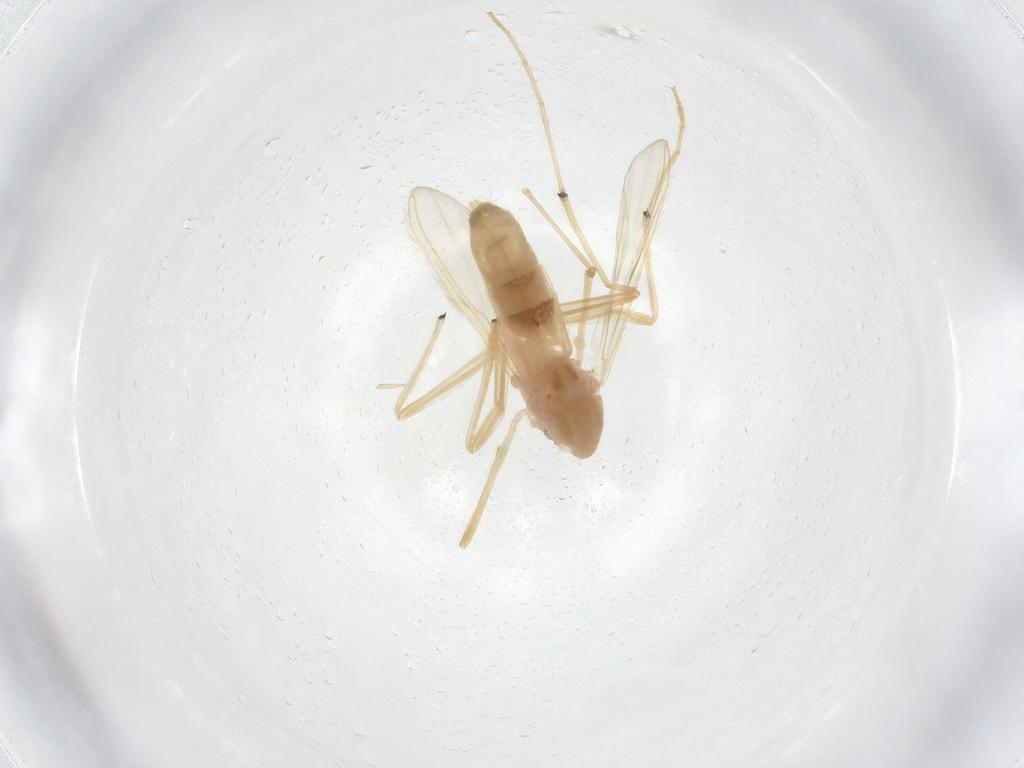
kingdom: Animalia
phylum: Arthropoda
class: Insecta
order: Diptera
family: Chironomidae
